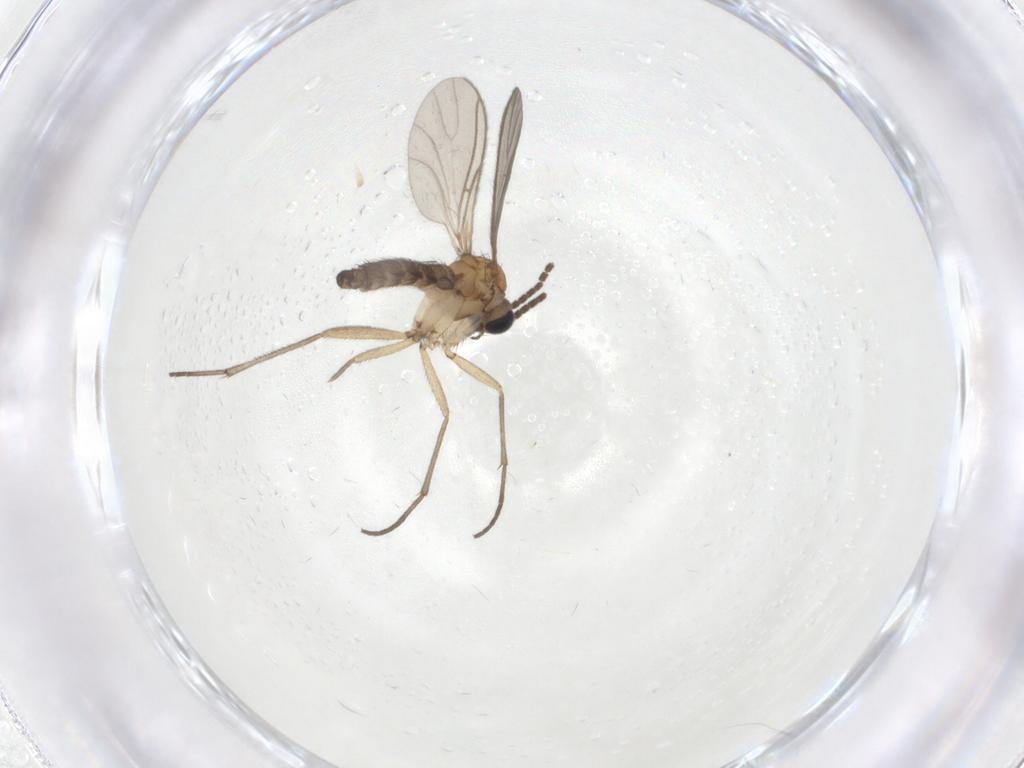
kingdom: Animalia
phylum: Arthropoda
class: Insecta
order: Diptera
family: Sciaridae
